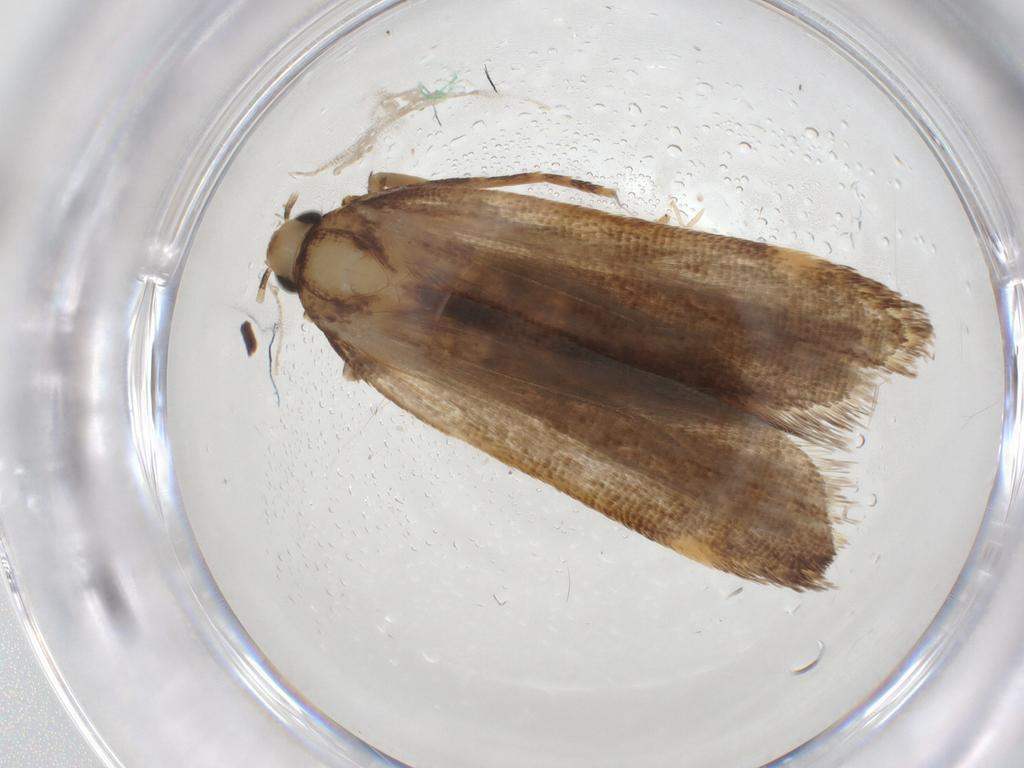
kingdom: Animalia
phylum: Arthropoda
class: Insecta
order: Lepidoptera
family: Gelechiidae
